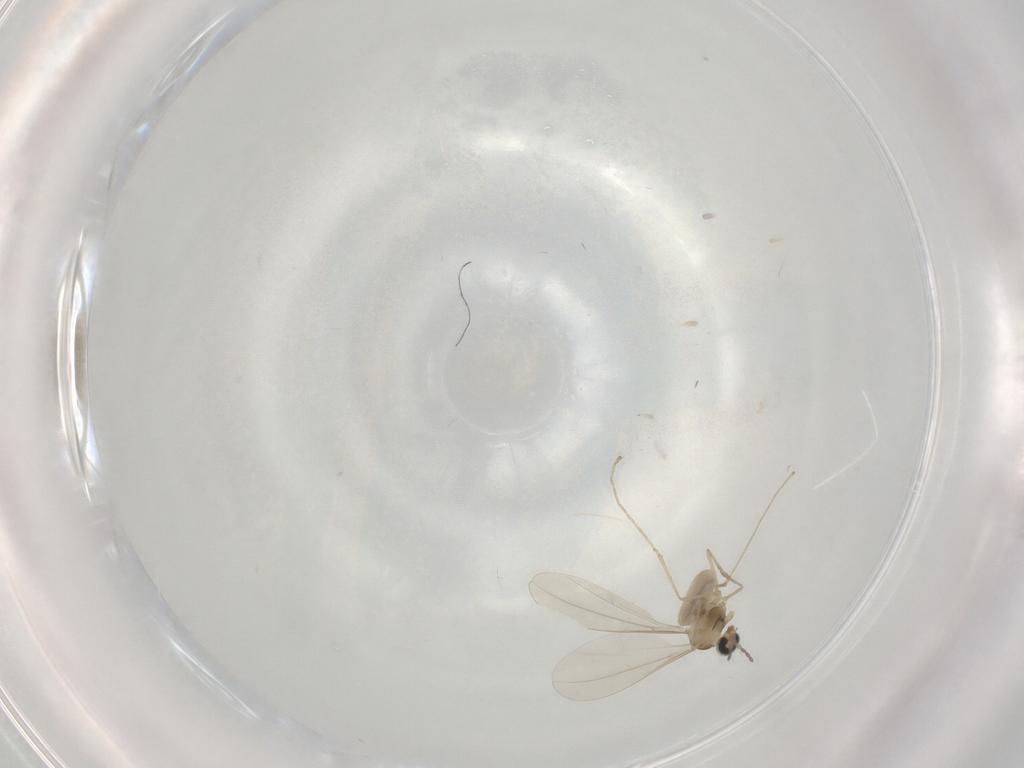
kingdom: Animalia
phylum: Arthropoda
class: Insecta
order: Diptera
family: Cecidomyiidae
